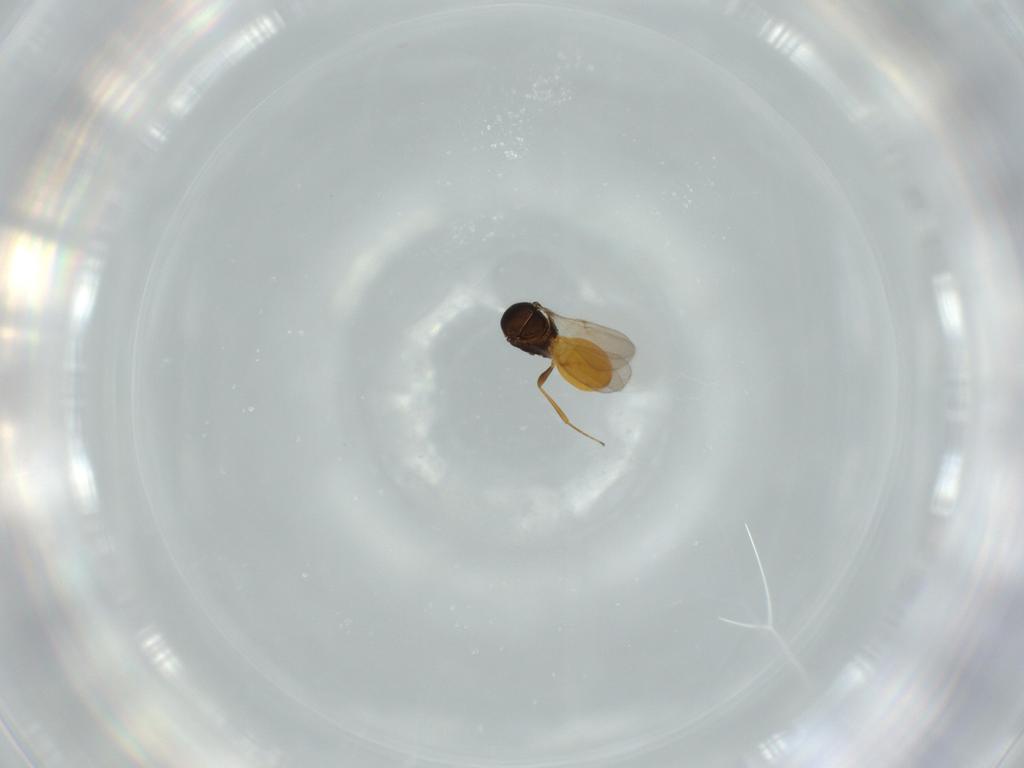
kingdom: Animalia
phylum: Arthropoda
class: Insecta
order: Hymenoptera
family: Scelionidae
